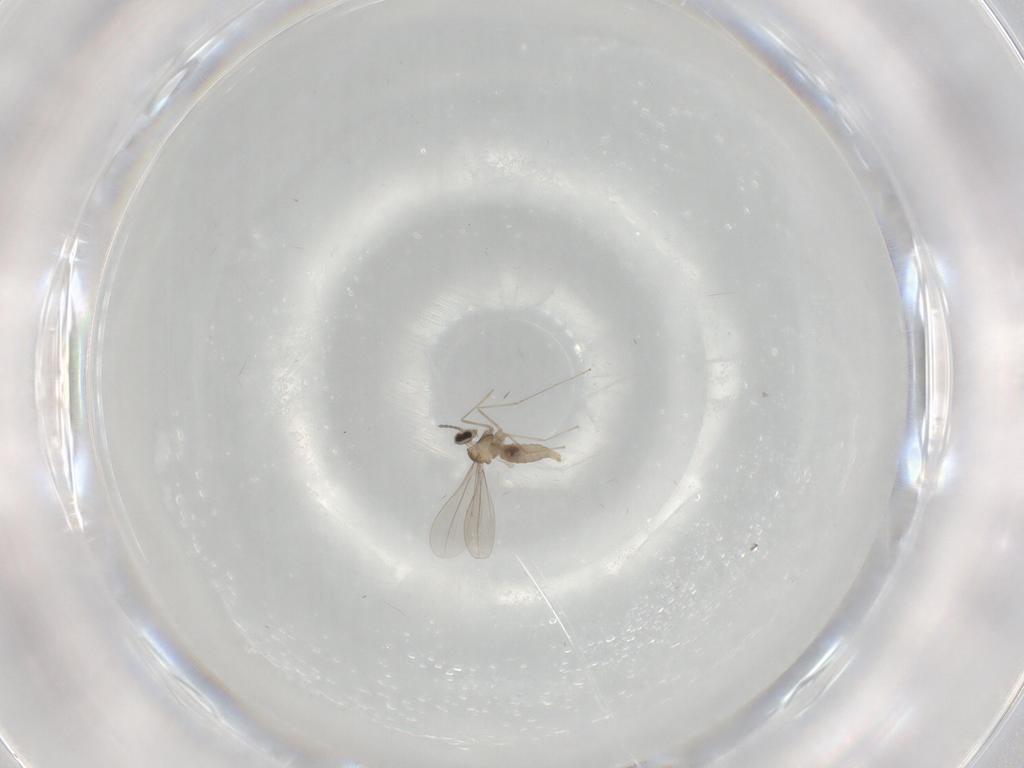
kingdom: Animalia
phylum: Arthropoda
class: Insecta
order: Diptera
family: Cecidomyiidae
